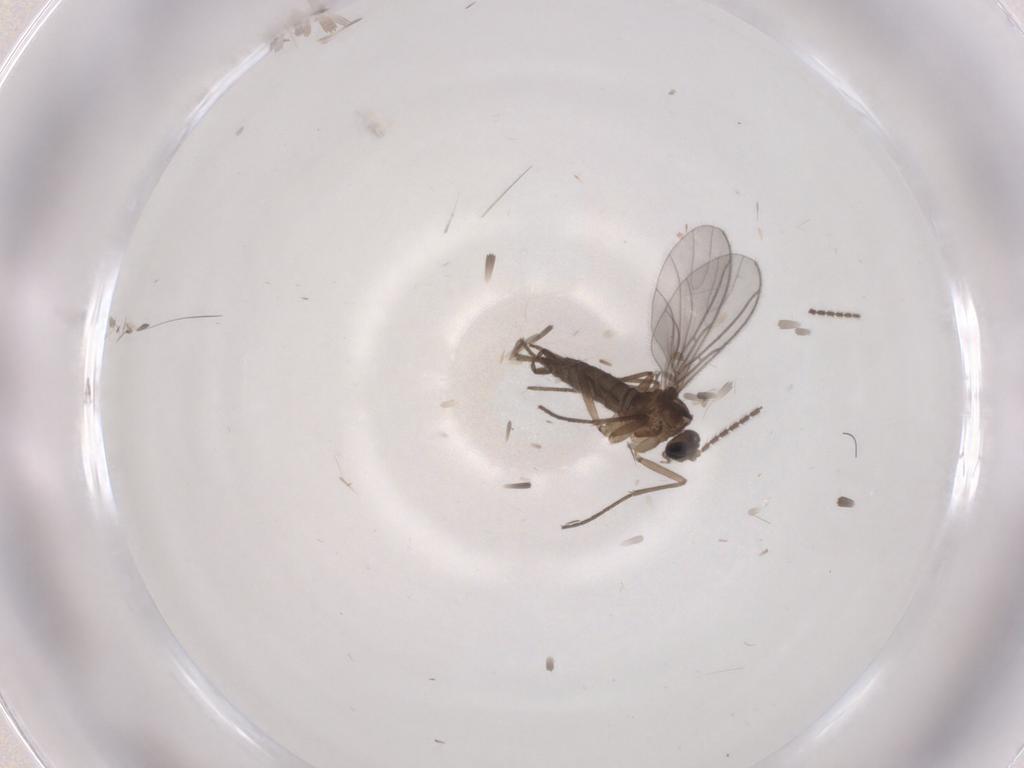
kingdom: Animalia
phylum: Arthropoda
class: Insecta
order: Diptera
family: Sciaridae
